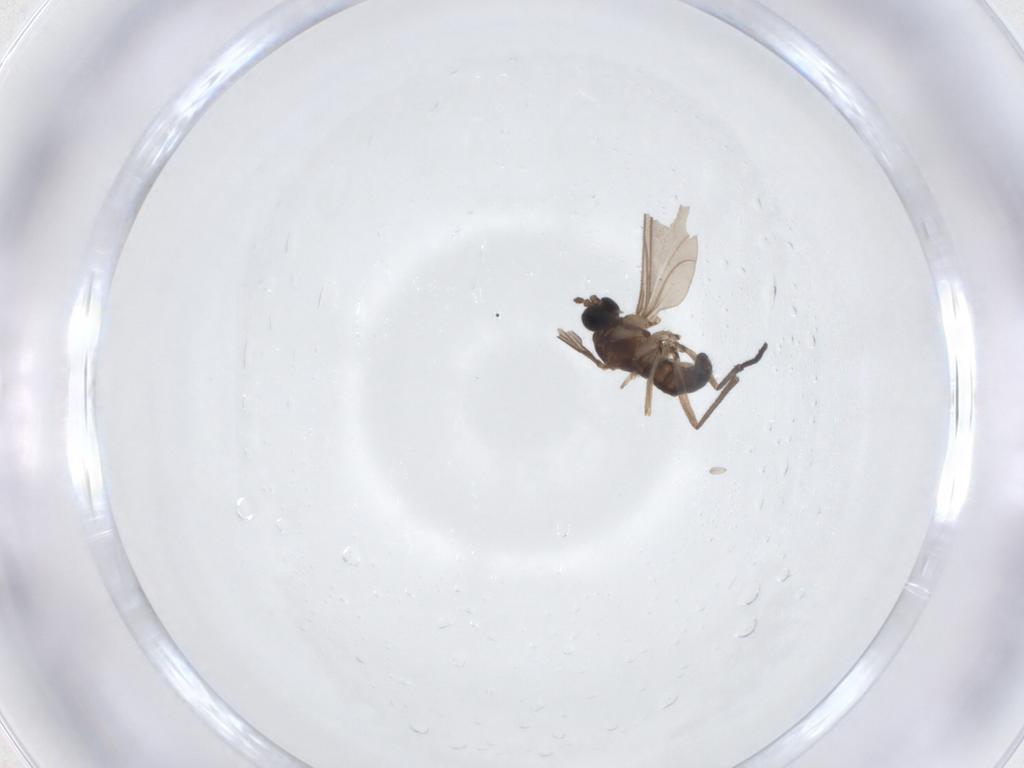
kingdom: Animalia
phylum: Arthropoda
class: Insecta
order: Diptera
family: Sciaridae
